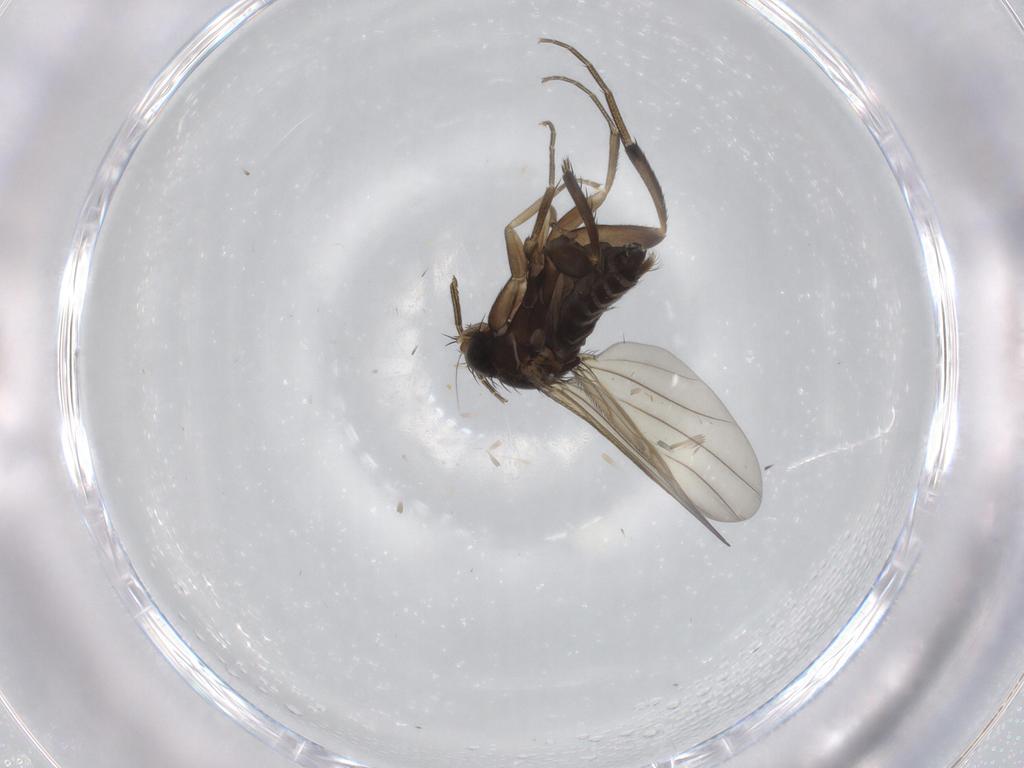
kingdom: Animalia
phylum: Arthropoda
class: Insecta
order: Diptera
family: Phoridae
